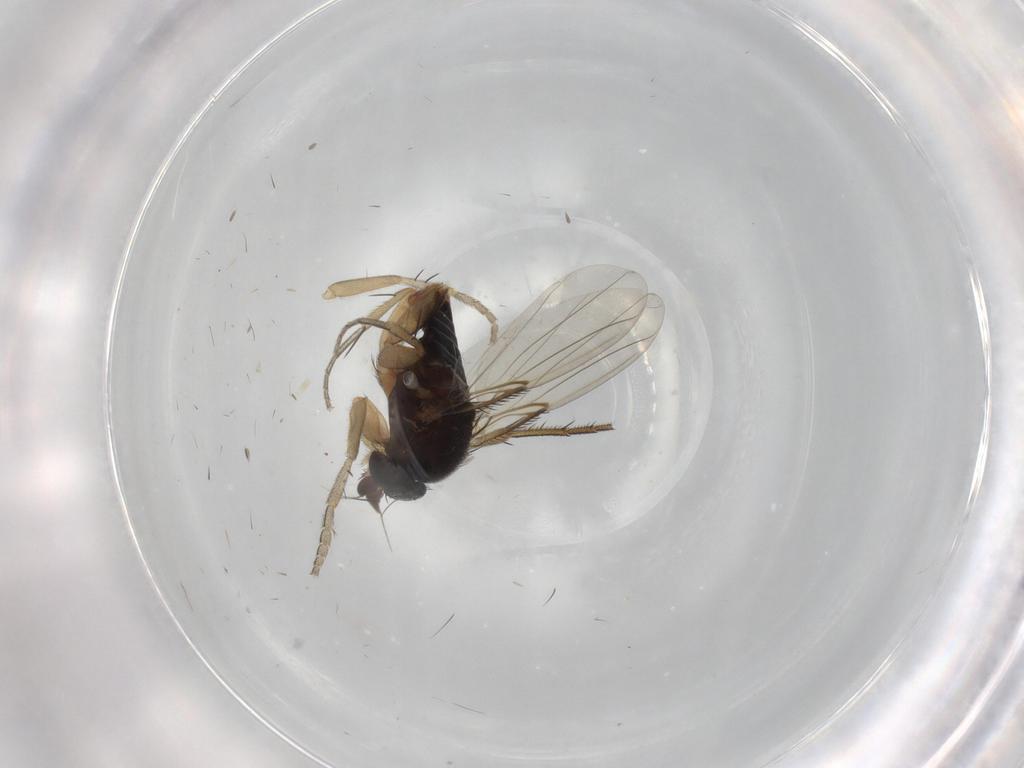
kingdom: Animalia
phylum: Arthropoda
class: Insecta
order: Diptera
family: Phoridae
